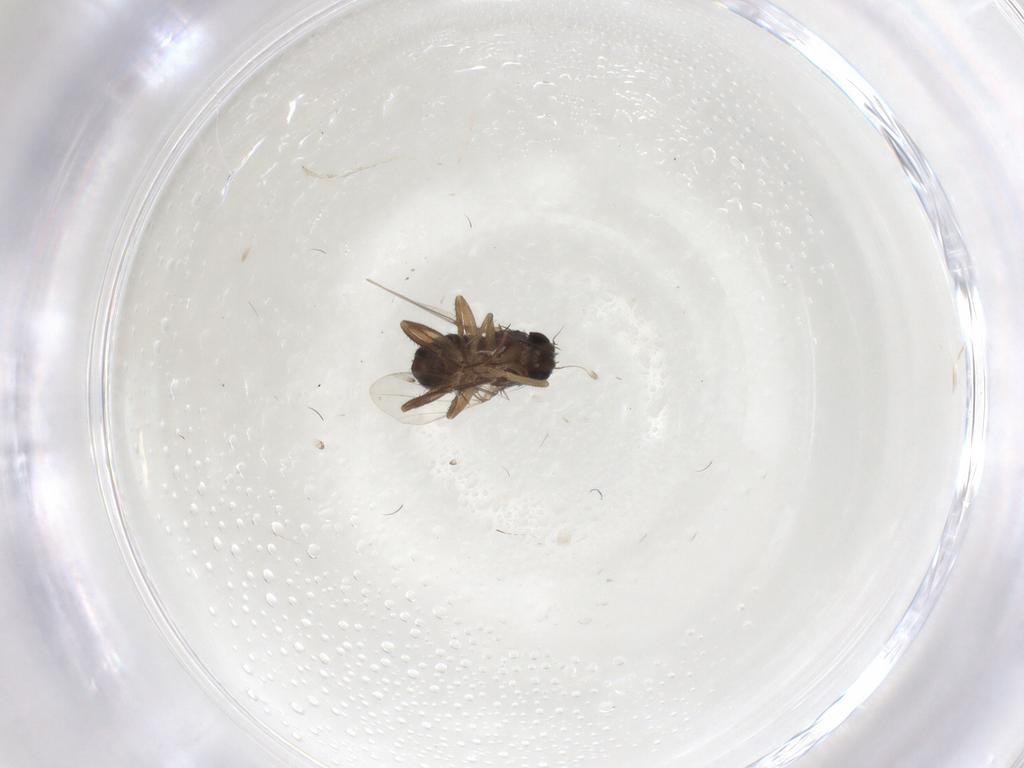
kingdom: Animalia
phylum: Arthropoda
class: Insecta
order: Diptera
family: Phoridae
